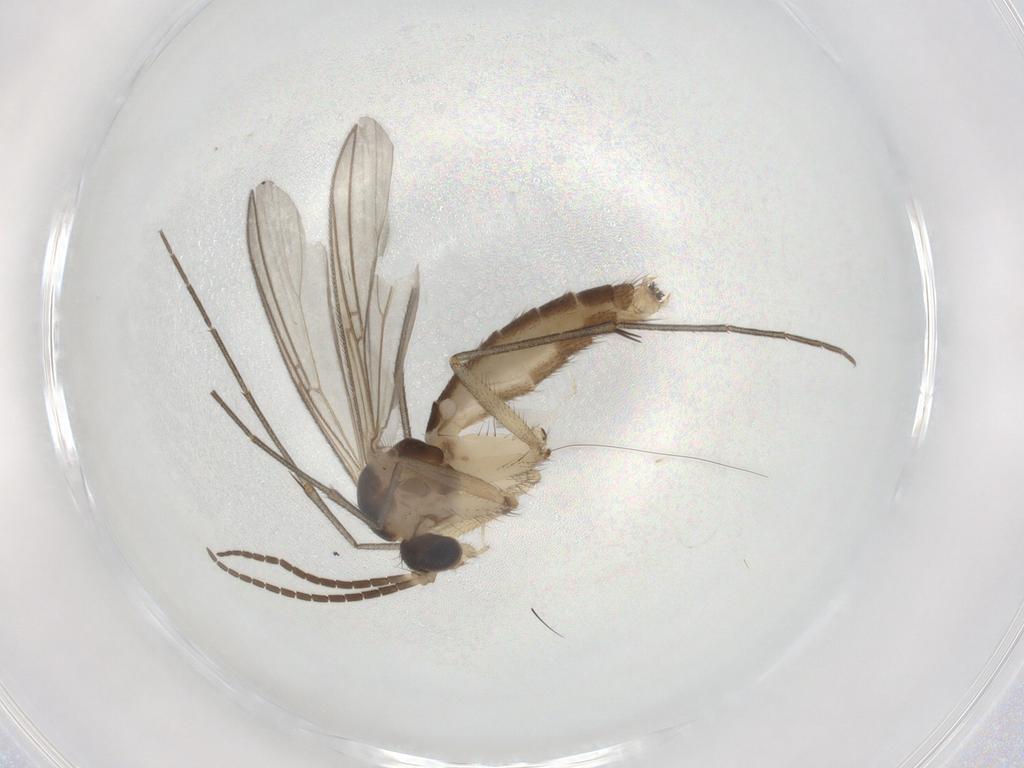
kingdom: Animalia
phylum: Arthropoda
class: Insecta
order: Diptera
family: Mycetophilidae
